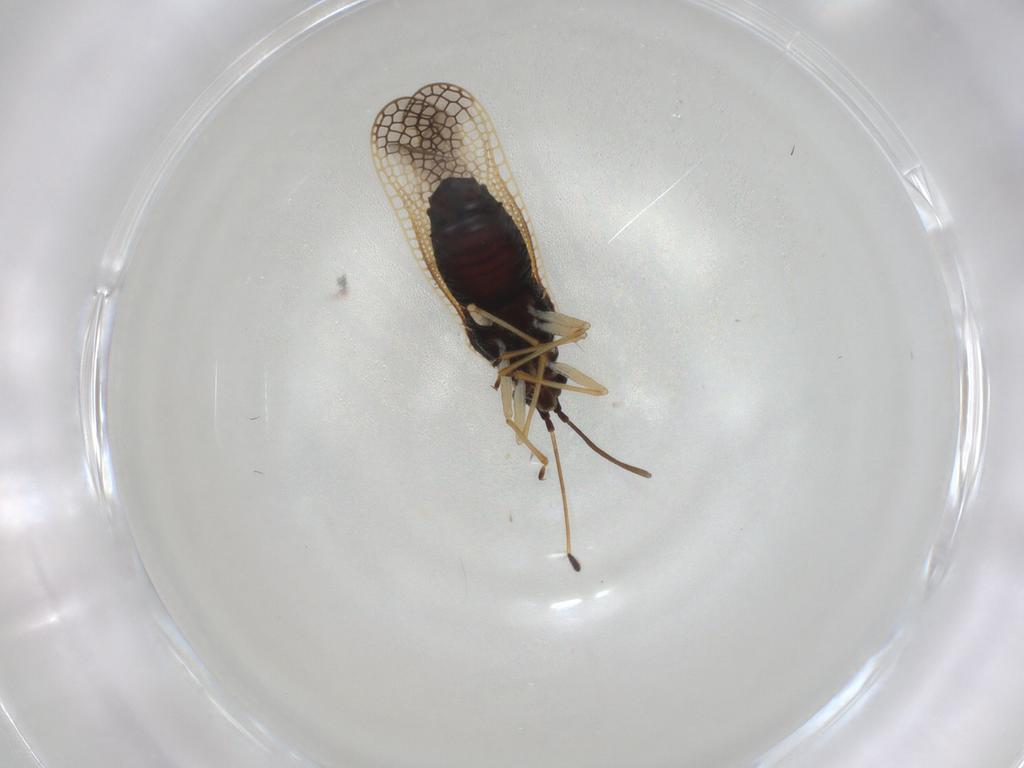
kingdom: Animalia
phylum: Arthropoda
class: Insecta
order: Hemiptera
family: Tingidae
